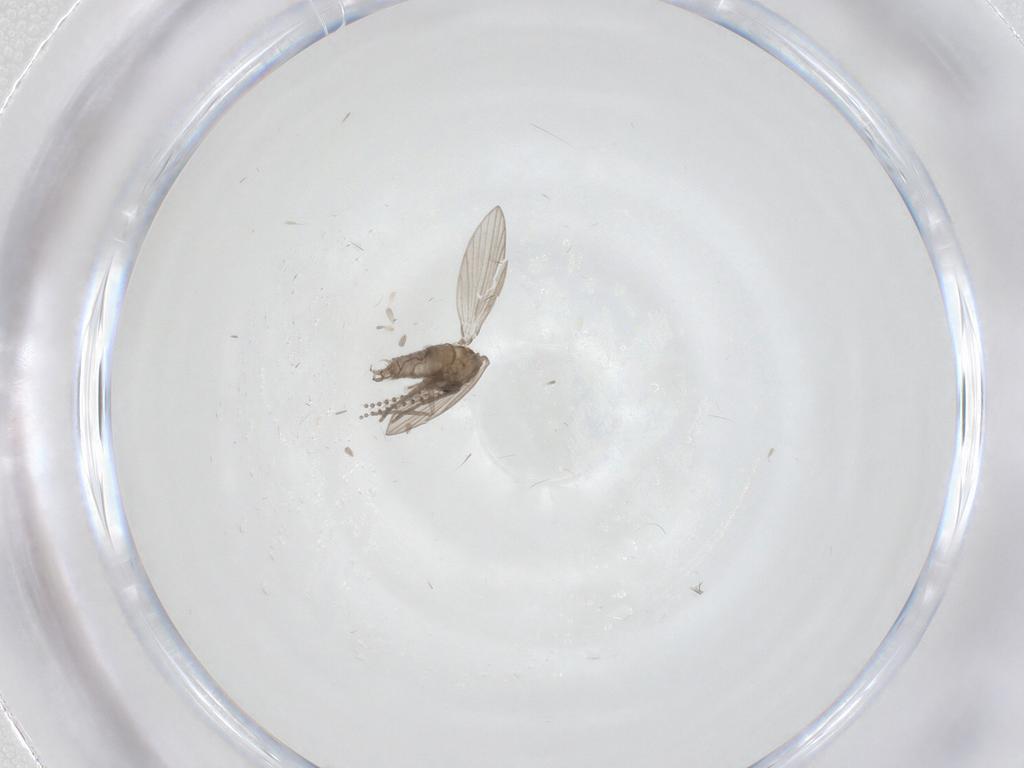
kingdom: Animalia
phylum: Arthropoda
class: Insecta
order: Diptera
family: Psychodidae
